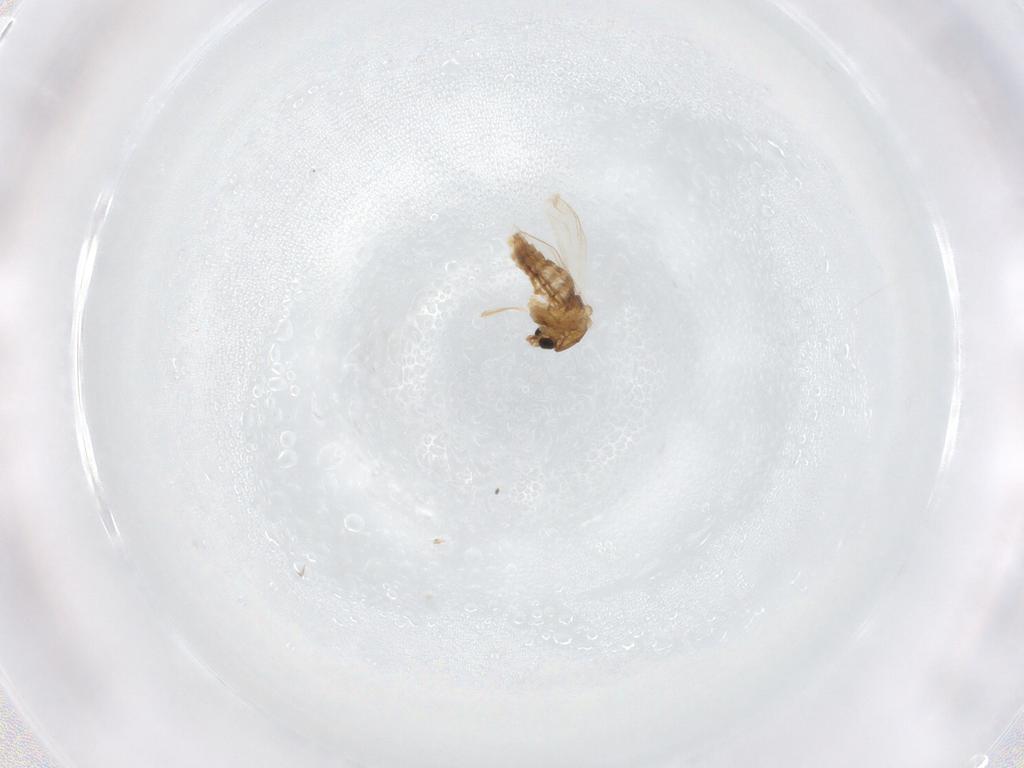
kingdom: Animalia
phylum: Arthropoda
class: Insecta
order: Diptera
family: Chironomidae
